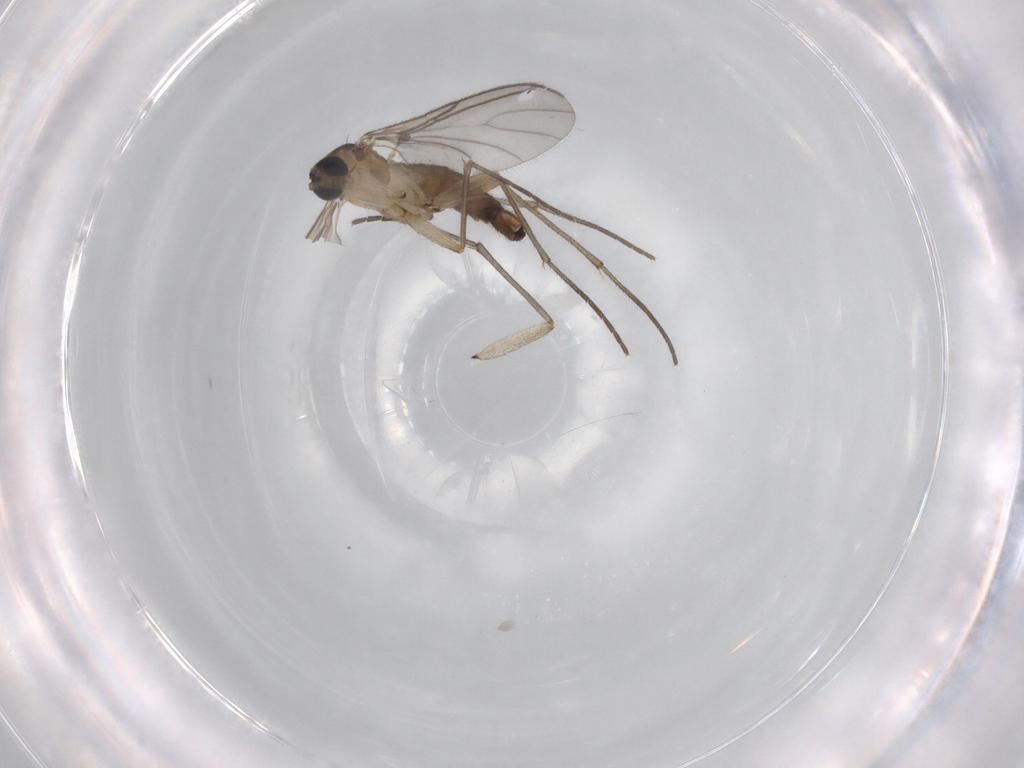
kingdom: Animalia
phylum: Arthropoda
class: Insecta
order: Diptera
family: Sciaridae
